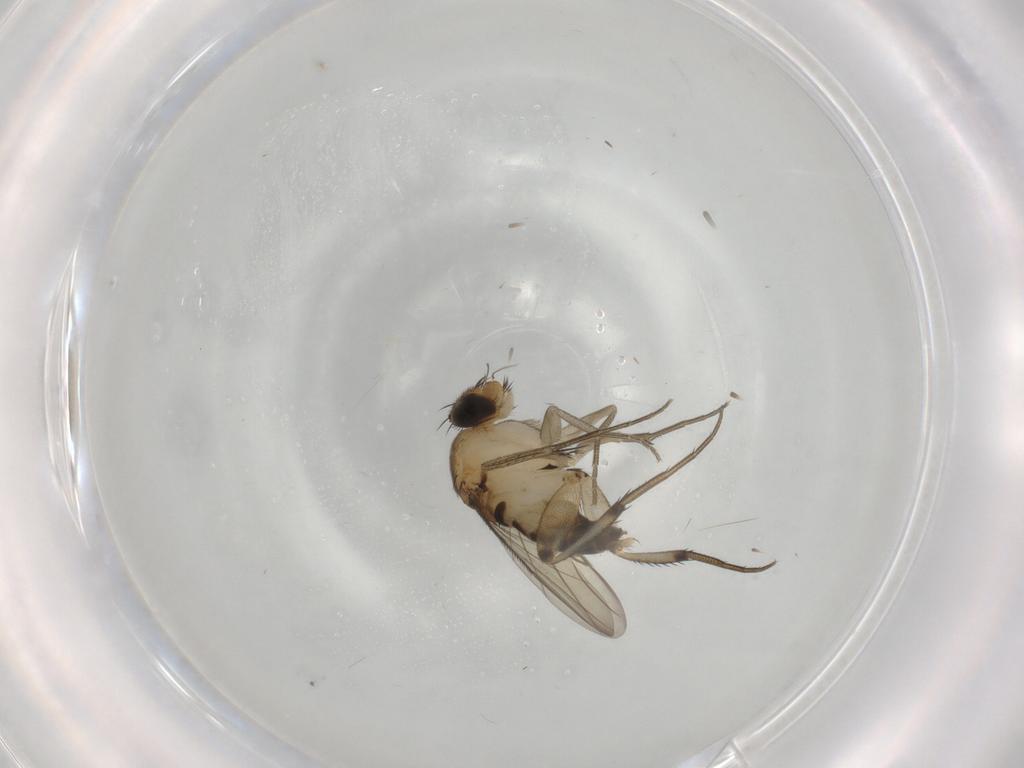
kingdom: Animalia
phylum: Arthropoda
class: Insecta
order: Diptera
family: Phoridae
